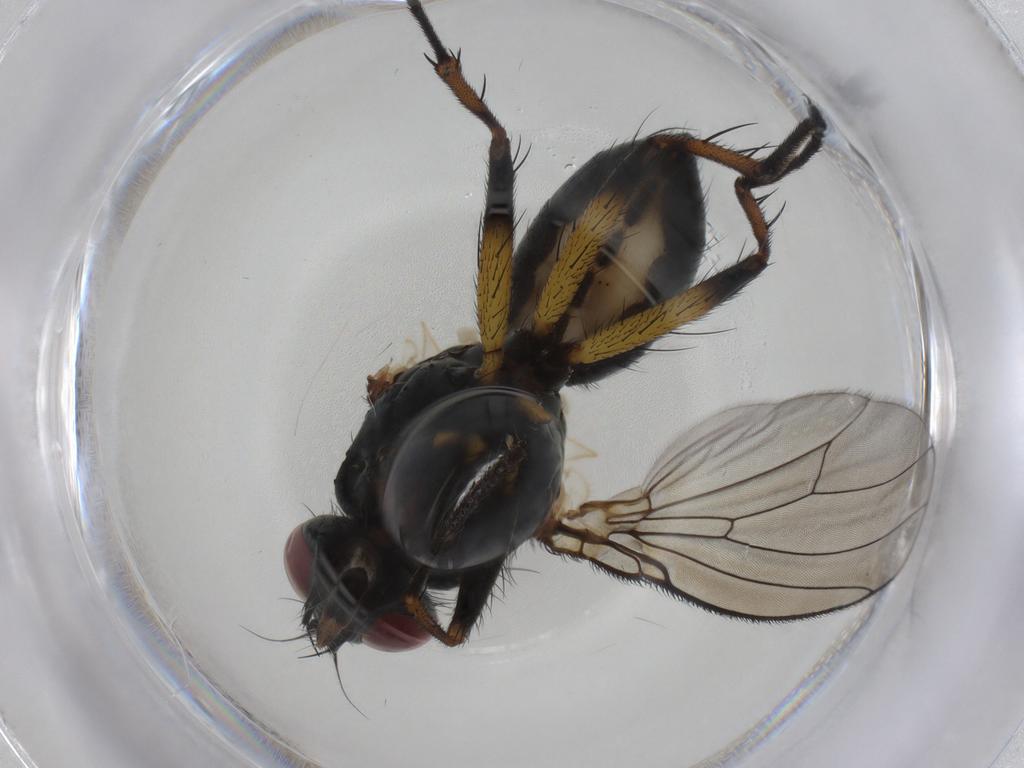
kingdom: Animalia
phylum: Arthropoda
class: Insecta
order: Diptera
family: Muscidae
